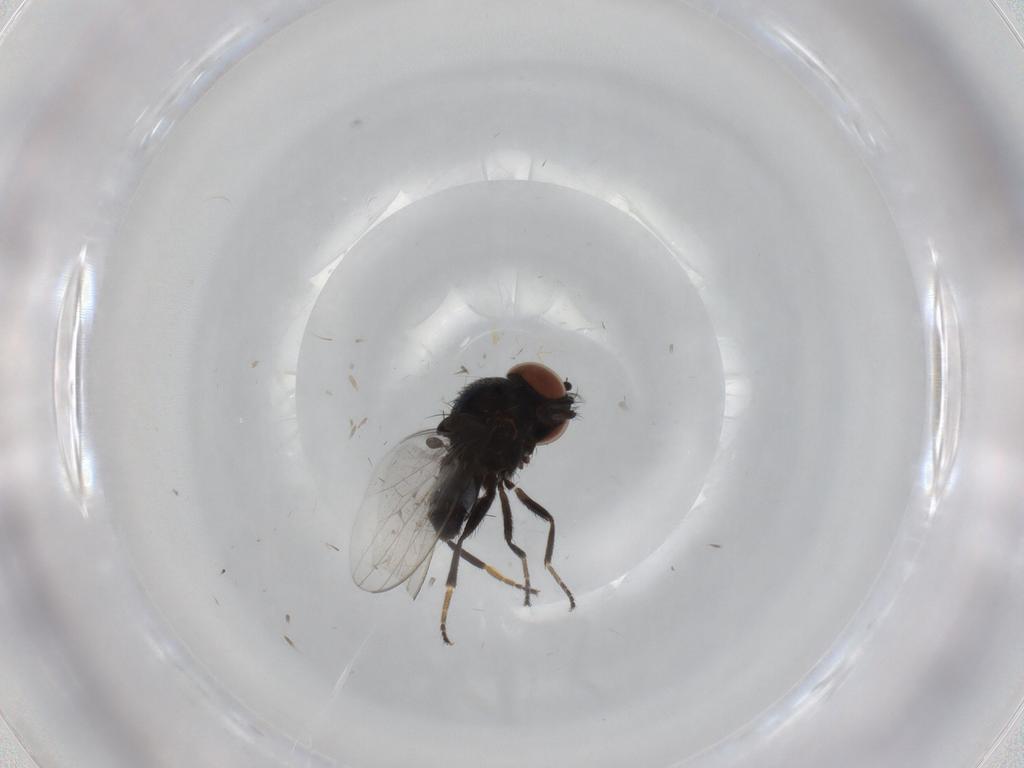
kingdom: Animalia
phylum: Arthropoda
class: Insecta
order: Diptera
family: Milichiidae
